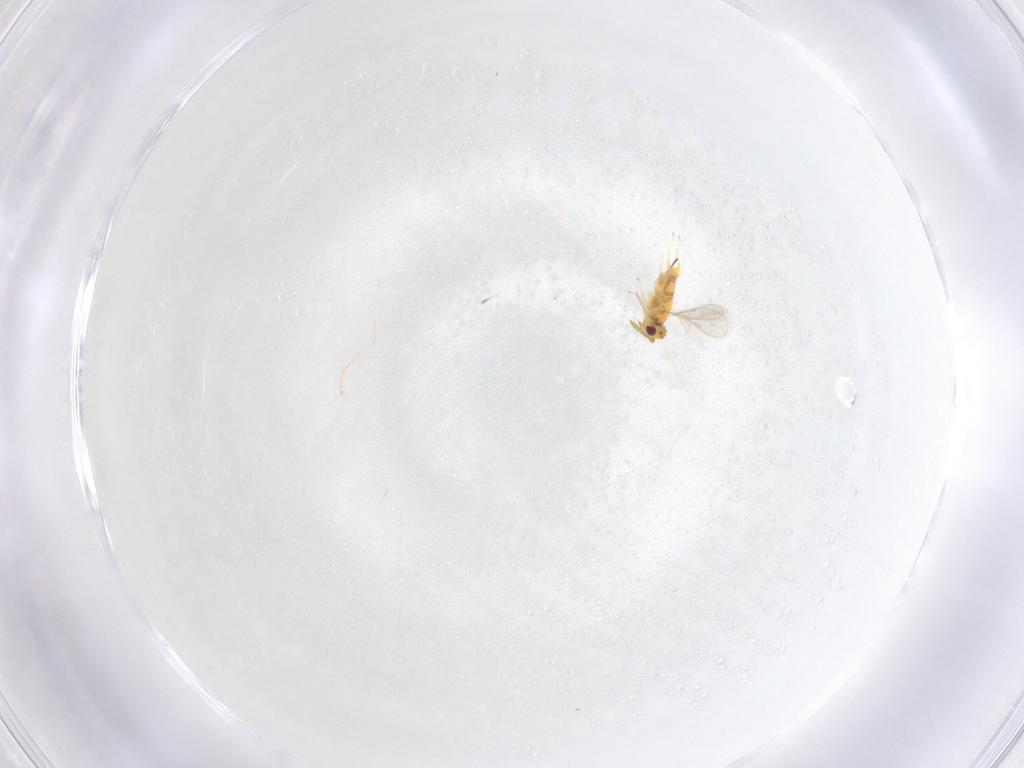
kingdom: Animalia
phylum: Arthropoda
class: Insecta
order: Hymenoptera
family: Aphelinidae
